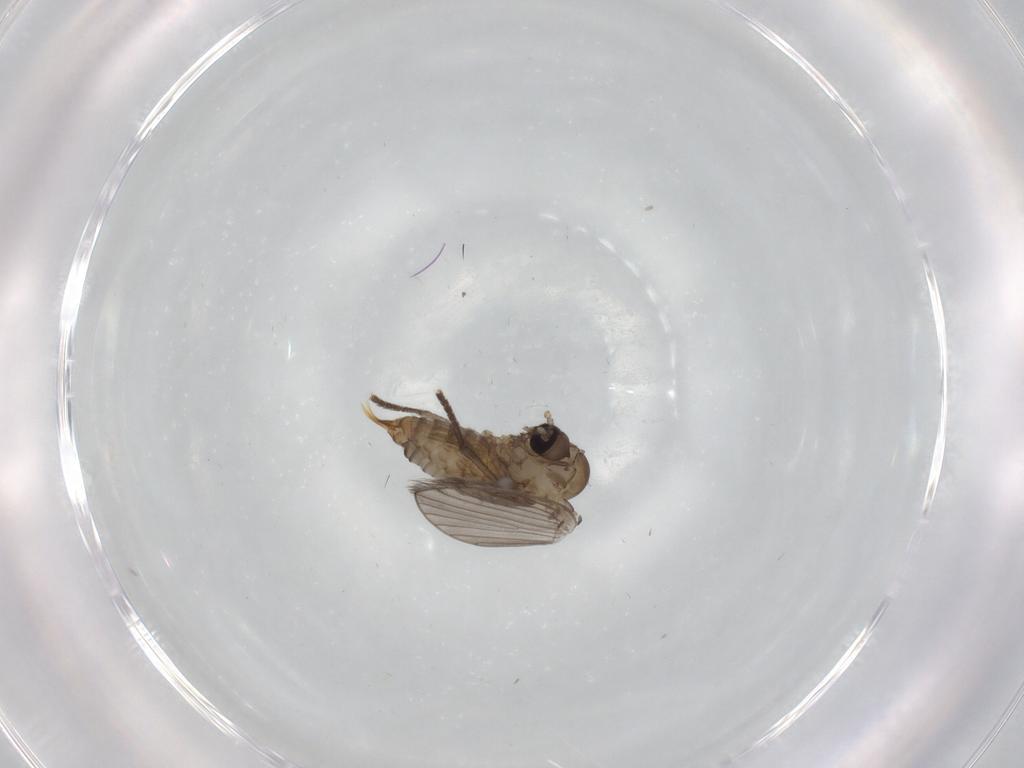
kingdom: Animalia
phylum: Arthropoda
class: Insecta
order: Diptera
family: Psychodidae
